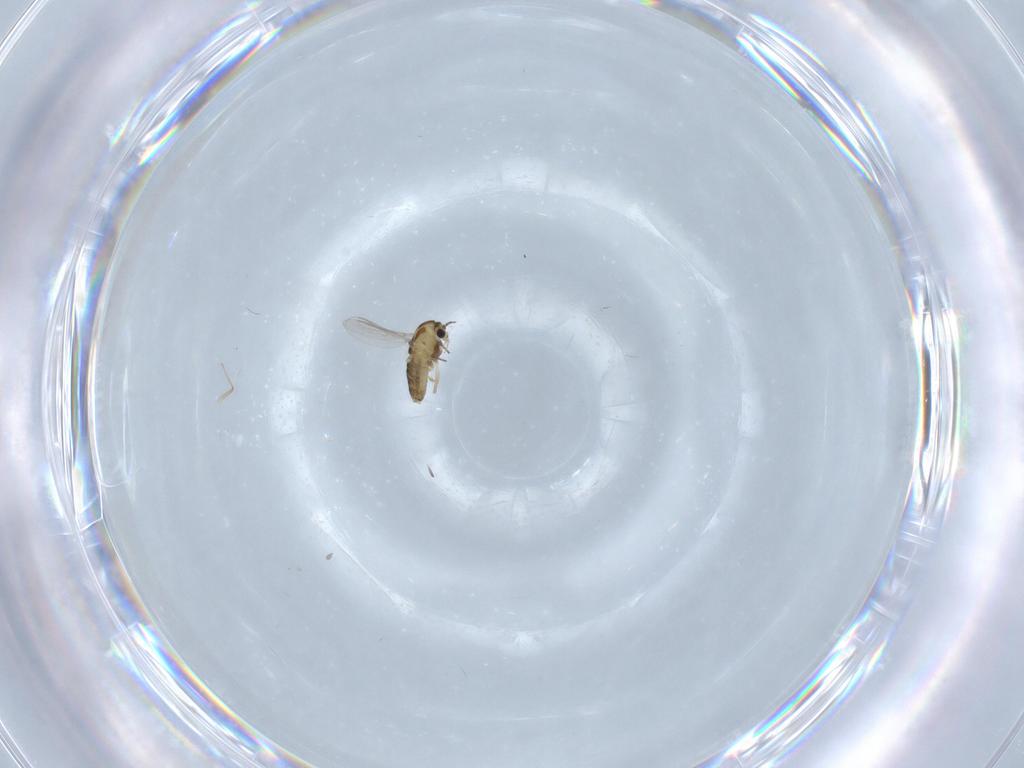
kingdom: Animalia
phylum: Arthropoda
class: Insecta
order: Diptera
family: Chironomidae
